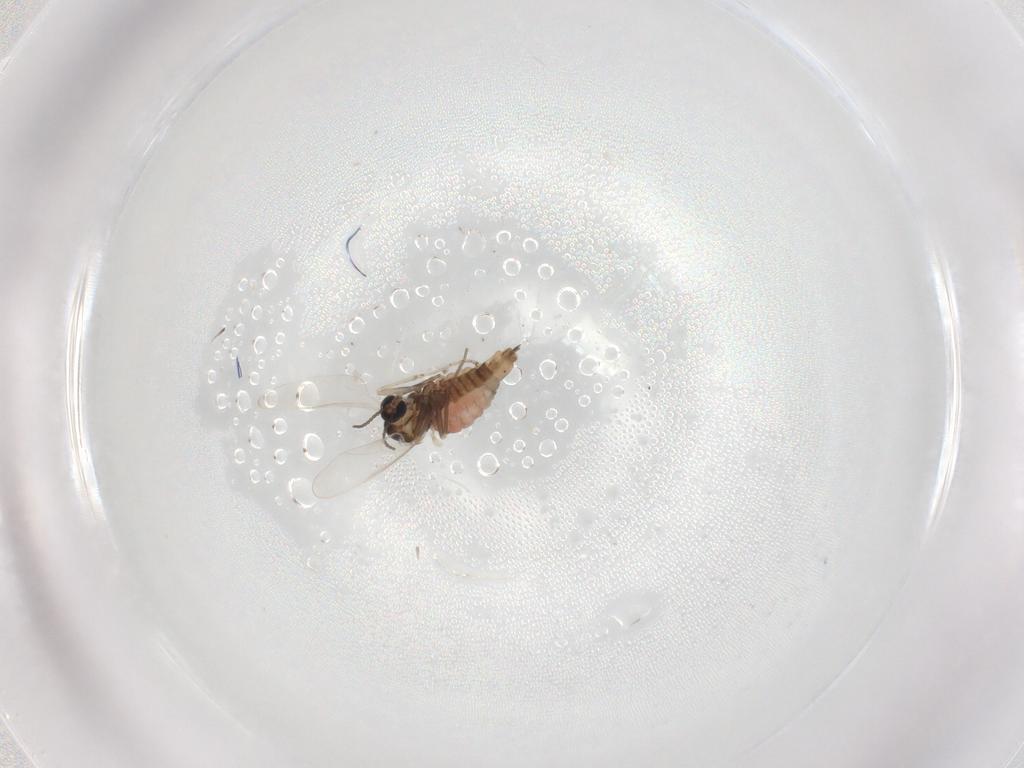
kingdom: Animalia
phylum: Arthropoda
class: Insecta
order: Diptera
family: Cecidomyiidae
